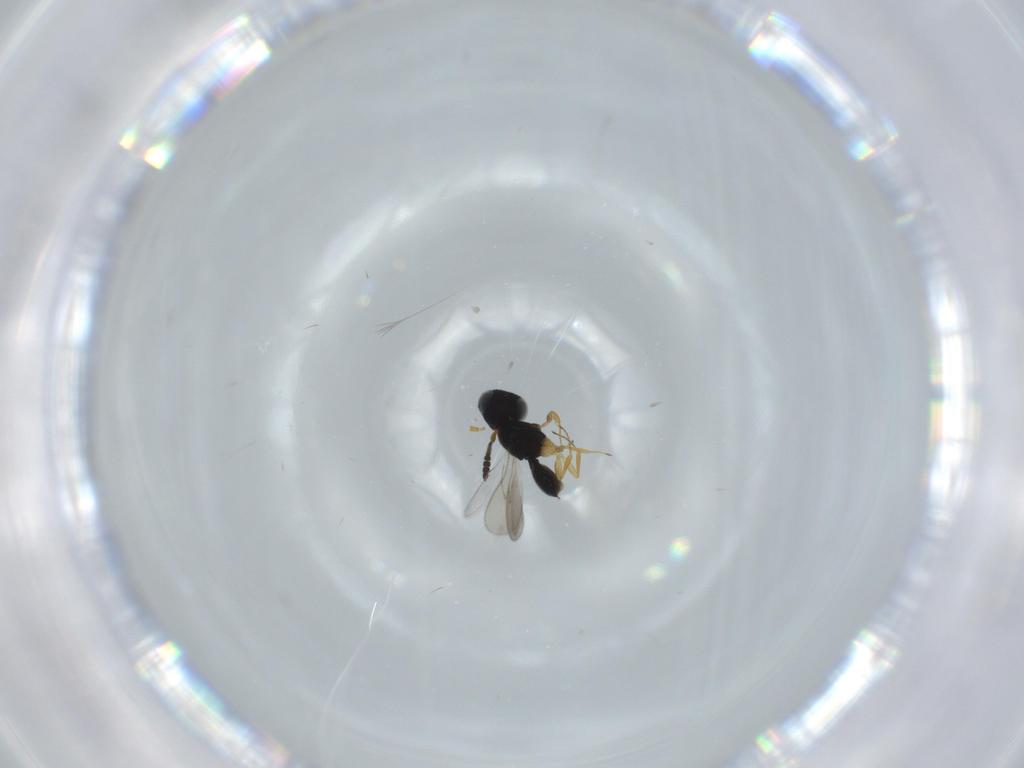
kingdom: Animalia
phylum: Arthropoda
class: Insecta
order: Hymenoptera
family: Scelionidae
